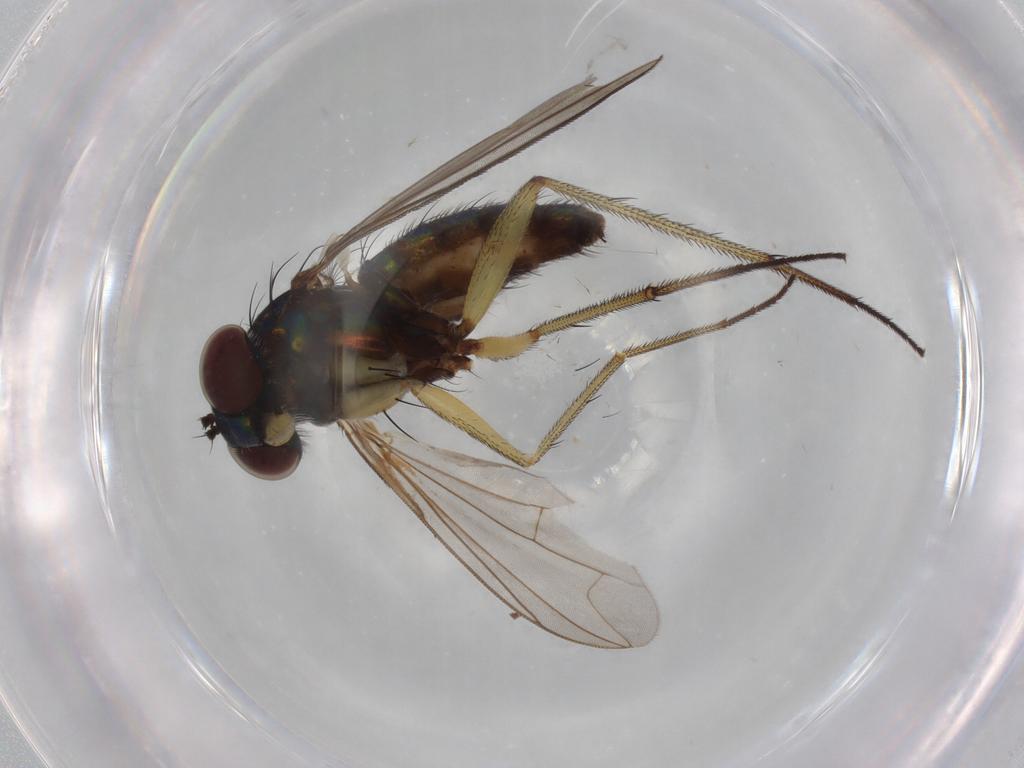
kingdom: Animalia
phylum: Arthropoda
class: Insecta
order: Diptera
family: Dolichopodidae
